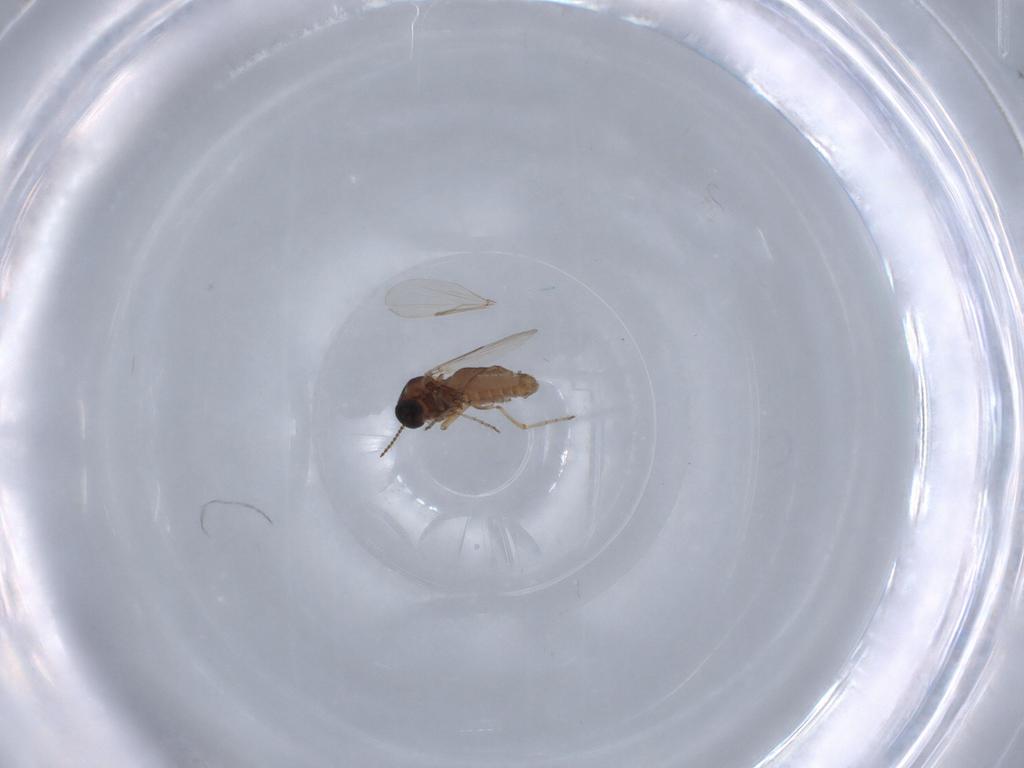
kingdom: Animalia
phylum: Arthropoda
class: Insecta
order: Diptera
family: Ceratopogonidae
